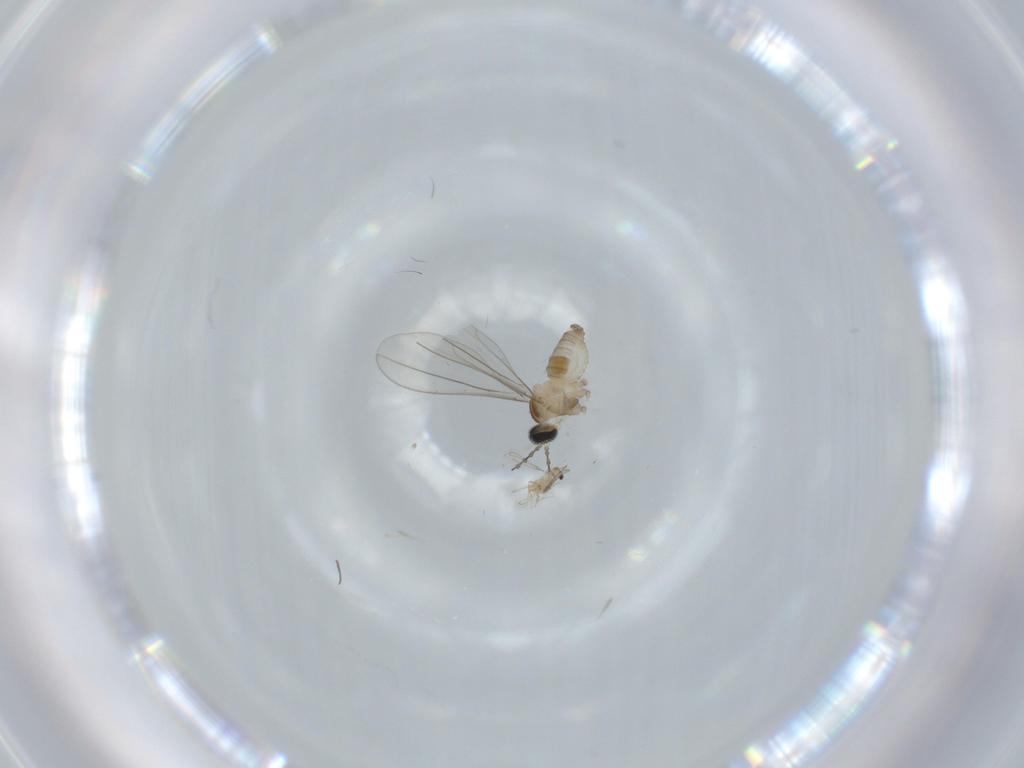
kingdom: Animalia
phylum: Arthropoda
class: Insecta
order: Diptera
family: Cecidomyiidae
